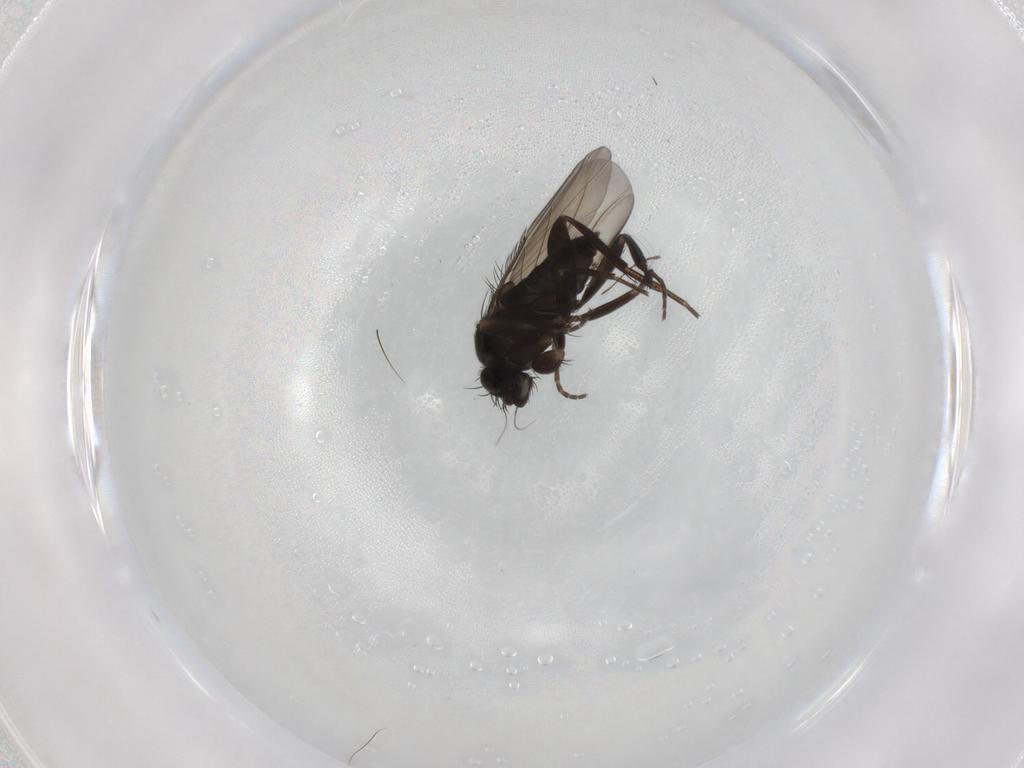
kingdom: Animalia
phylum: Arthropoda
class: Insecta
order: Diptera
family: Phoridae
